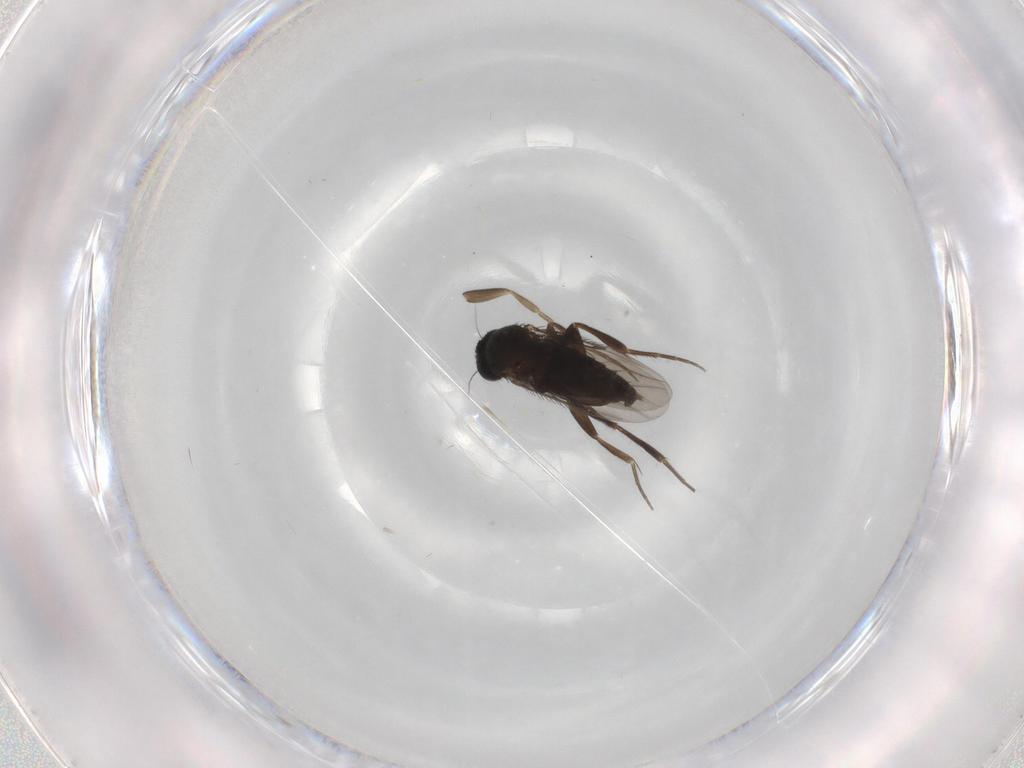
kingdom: Animalia
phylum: Arthropoda
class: Insecta
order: Diptera
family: Phoridae
